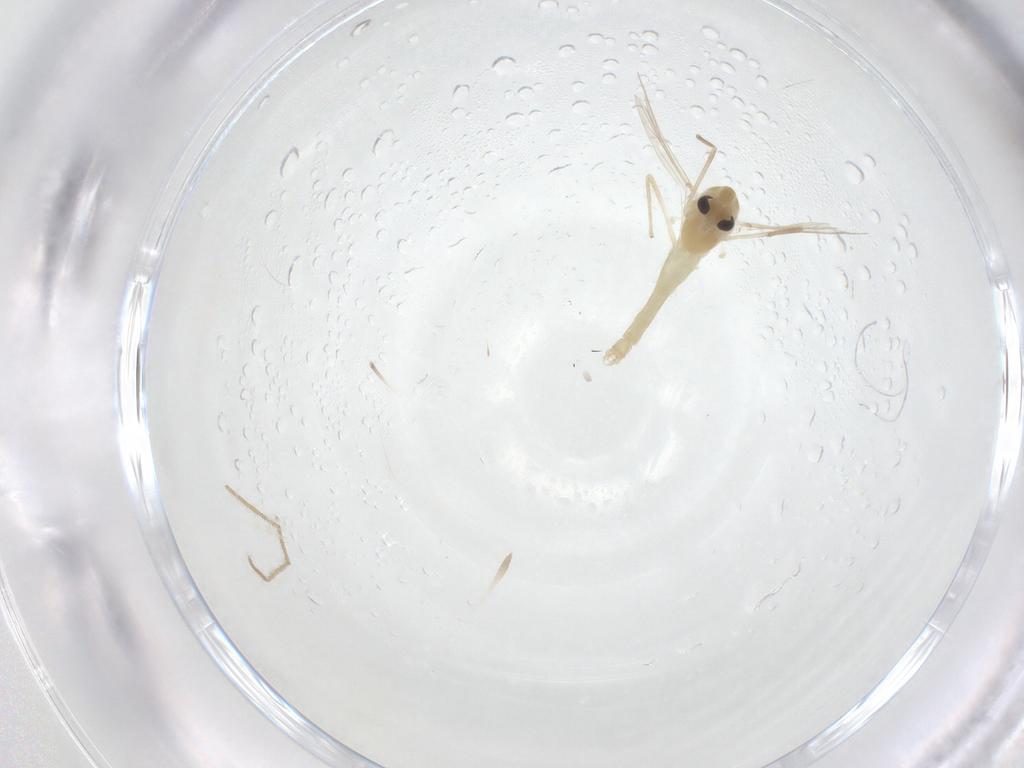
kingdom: Animalia
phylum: Arthropoda
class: Insecta
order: Diptera
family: Chironomidae
